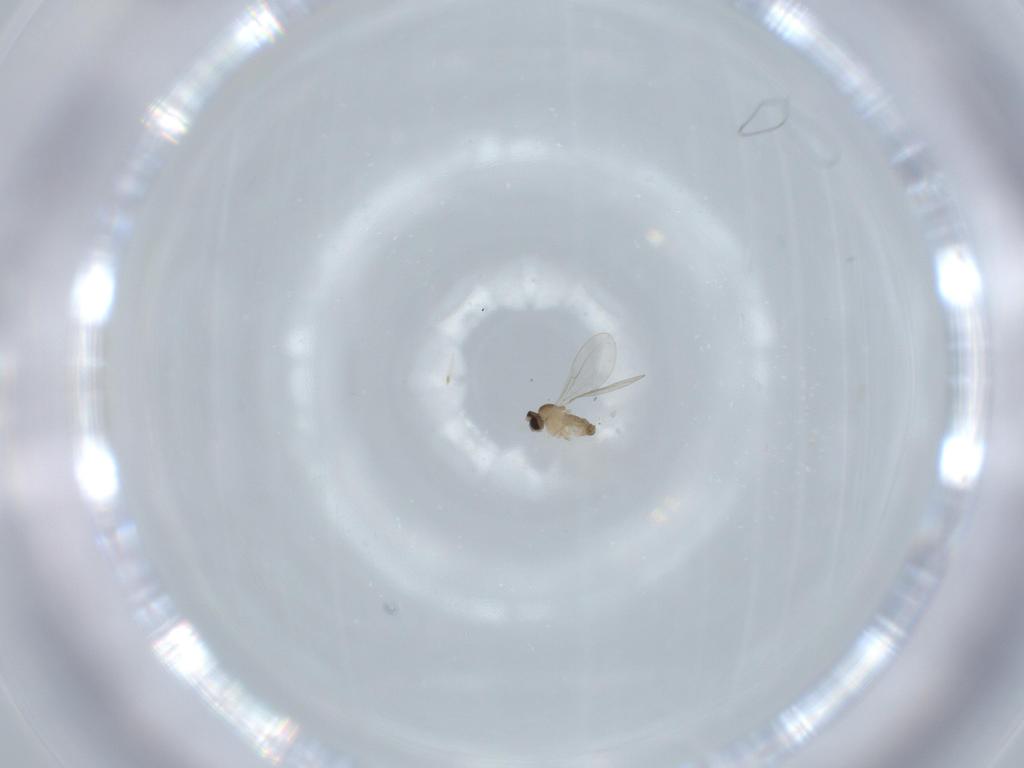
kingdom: Animalia
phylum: Arthropoda
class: Insecta
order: Diptera
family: Cecidomyiidae
